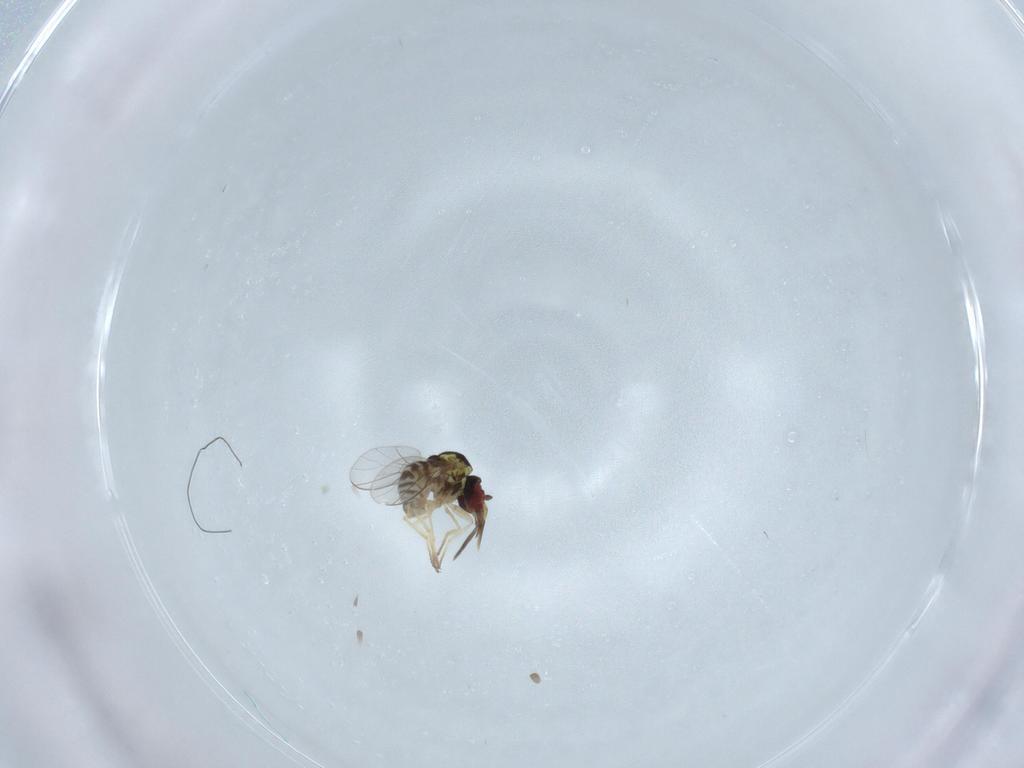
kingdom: Animalia
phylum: Arthropoda
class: Insecta
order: Diptera
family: Bombyliidae
